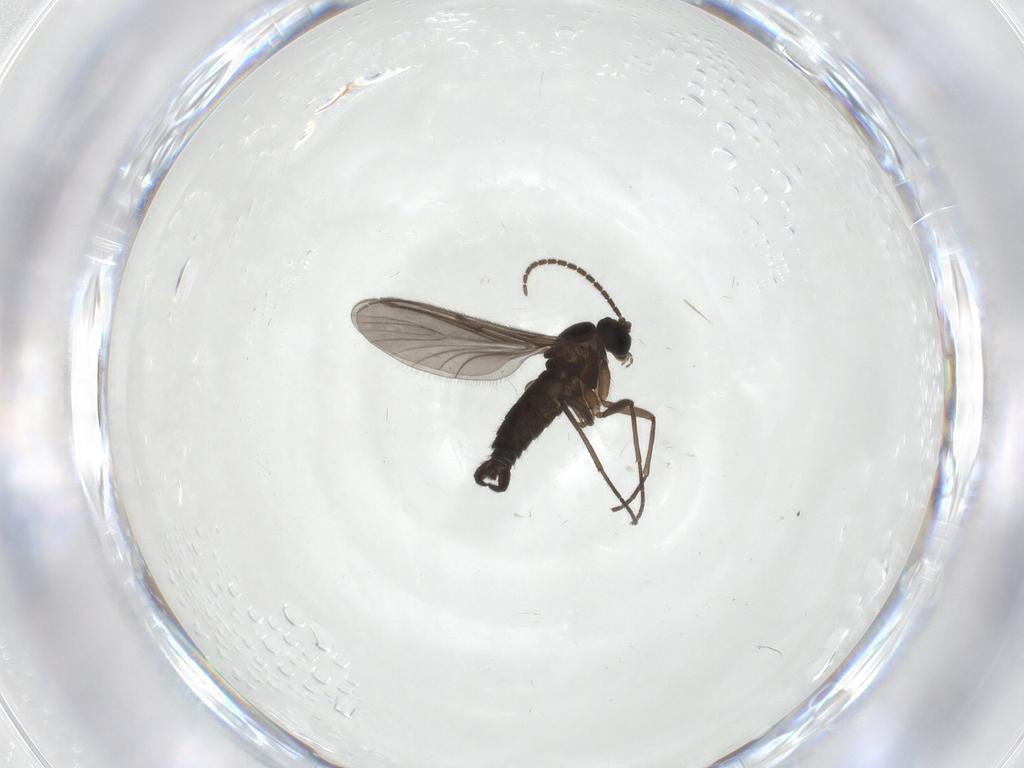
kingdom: Animalia
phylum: Arthropoda
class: Insecta
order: Diptera
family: Sciaridae
